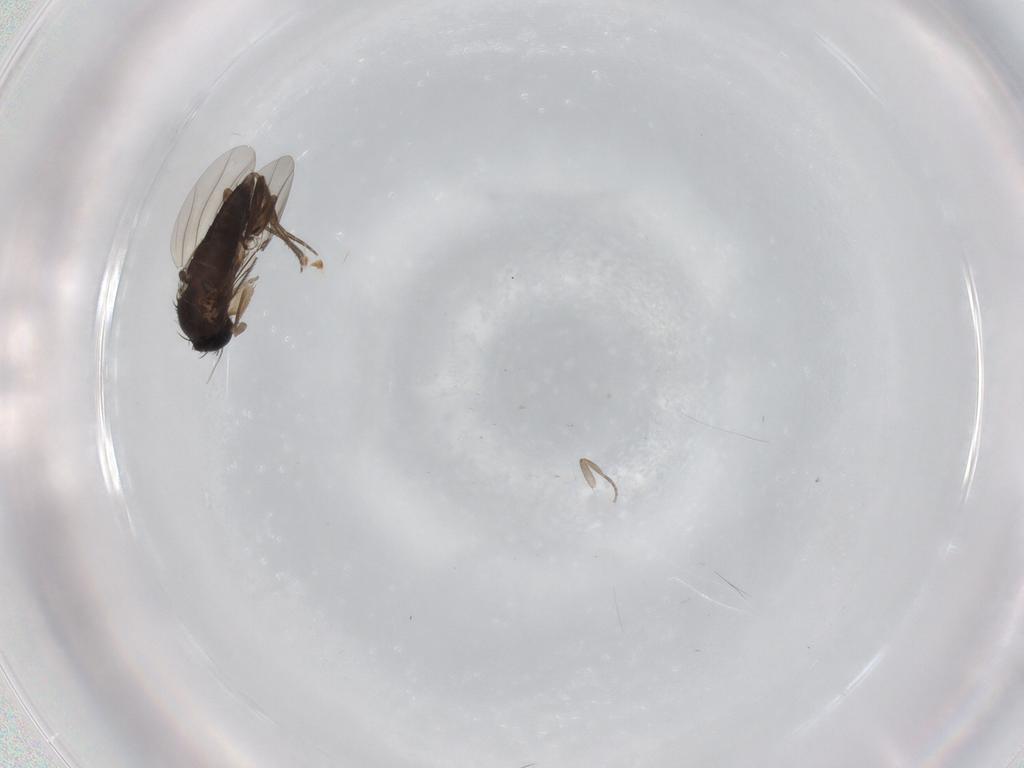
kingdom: Animalia
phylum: Arthropoda
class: Insecta
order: Diptera
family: Phoridae
